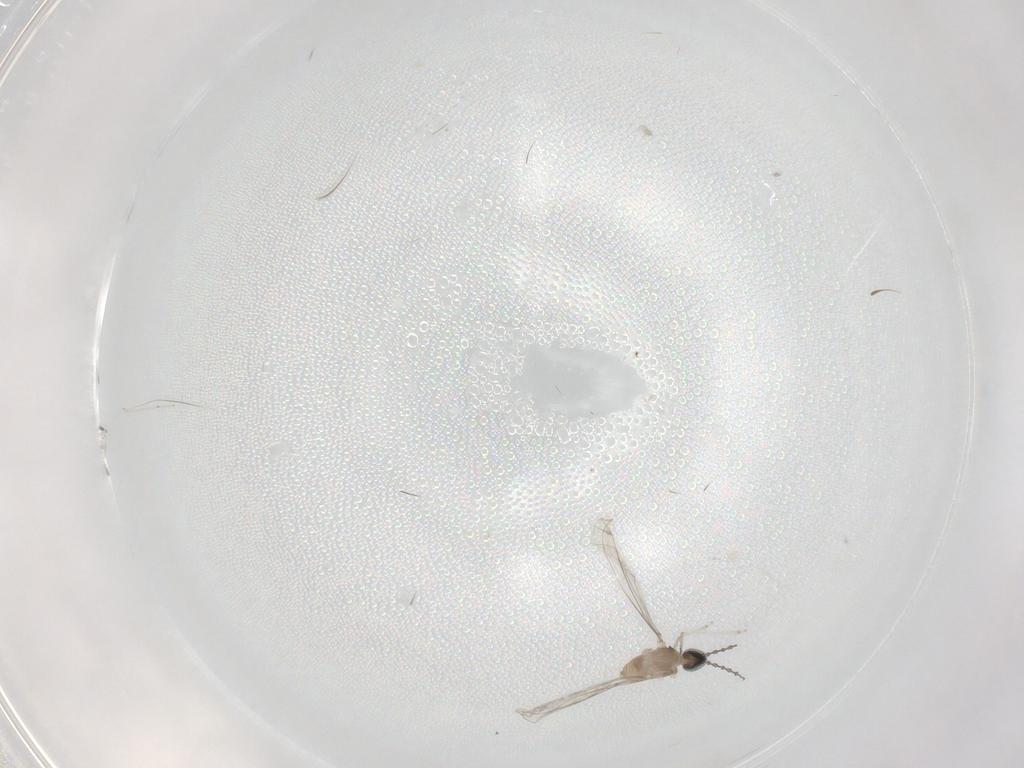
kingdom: Animalia
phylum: Arthropoda
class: Insecta
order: Diptera
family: Cecidomyiidae
